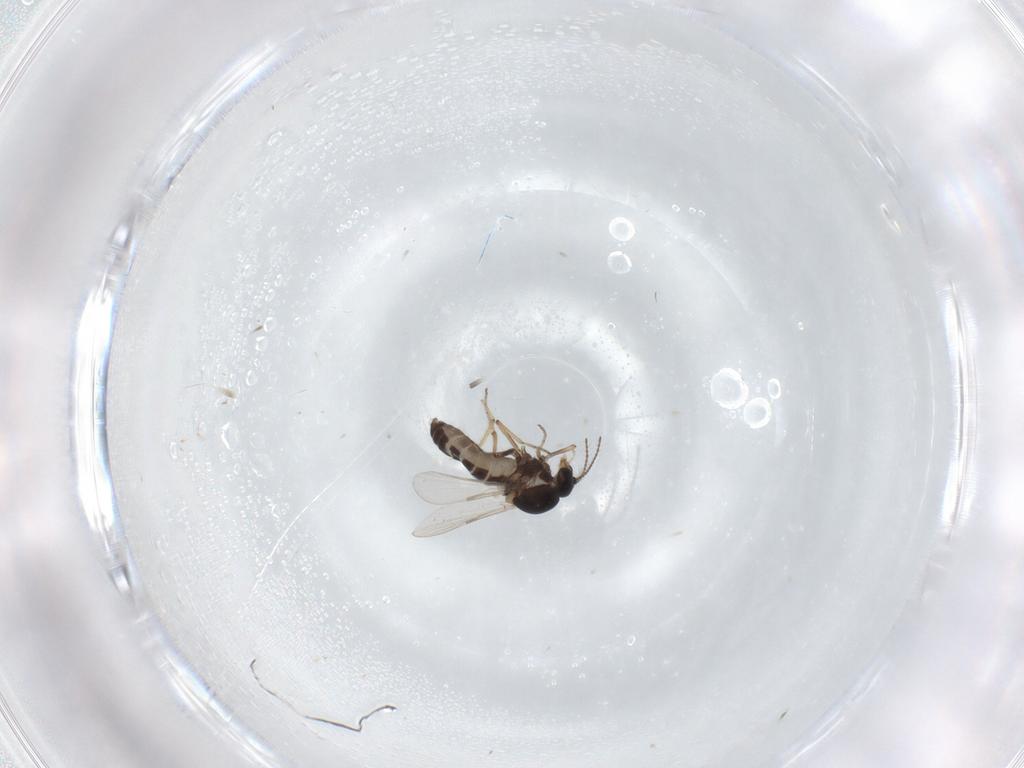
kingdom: Animalia
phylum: Arthropoda
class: Insecta
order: Diptera
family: Ceratopogonidae
